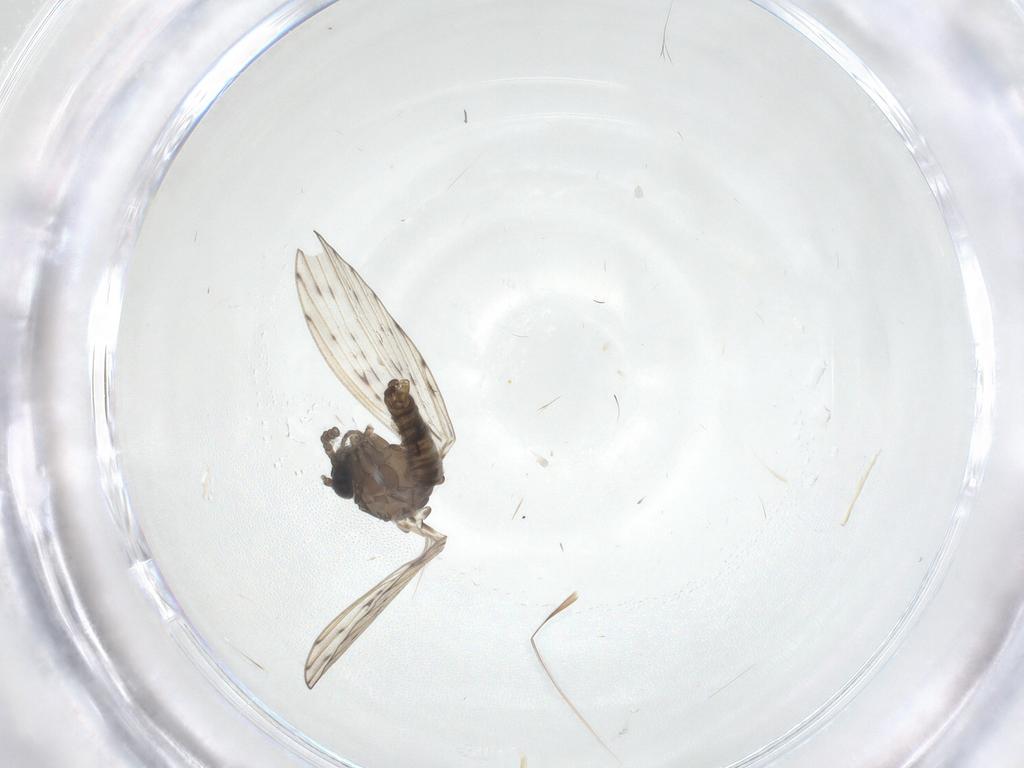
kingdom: Animalia
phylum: Arthropoda
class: Insecta
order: Diptera
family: Psychodidae
